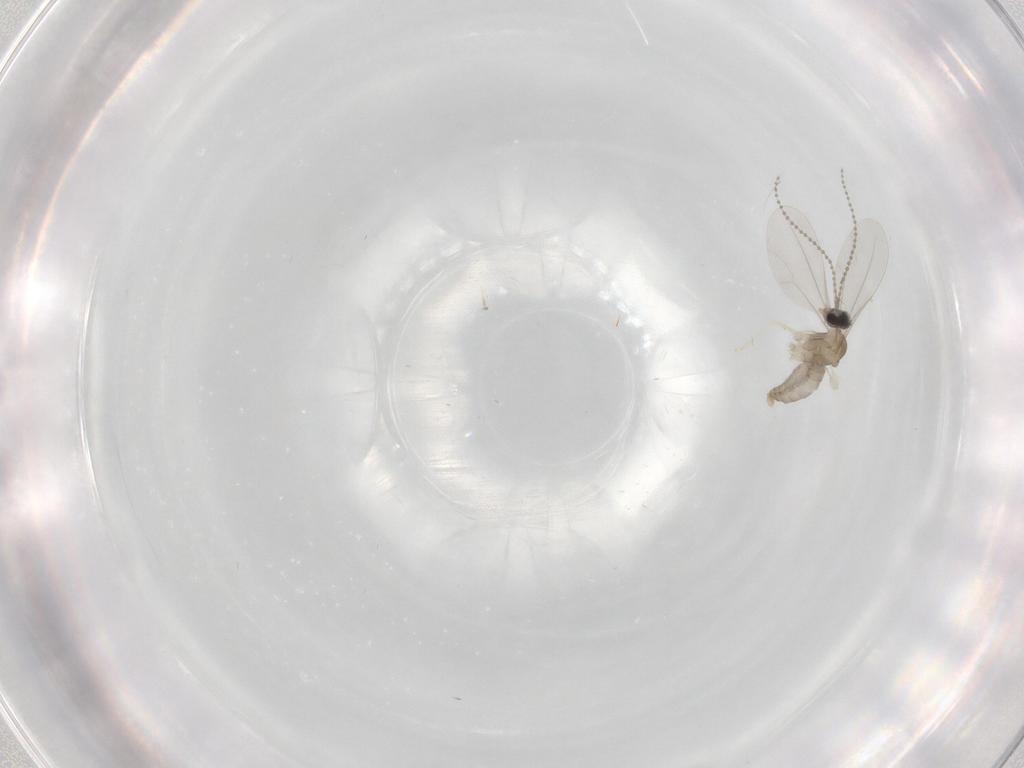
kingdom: Animalia
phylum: Arthropoda
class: Insecta
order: Diptera
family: Cecidomyiidae
